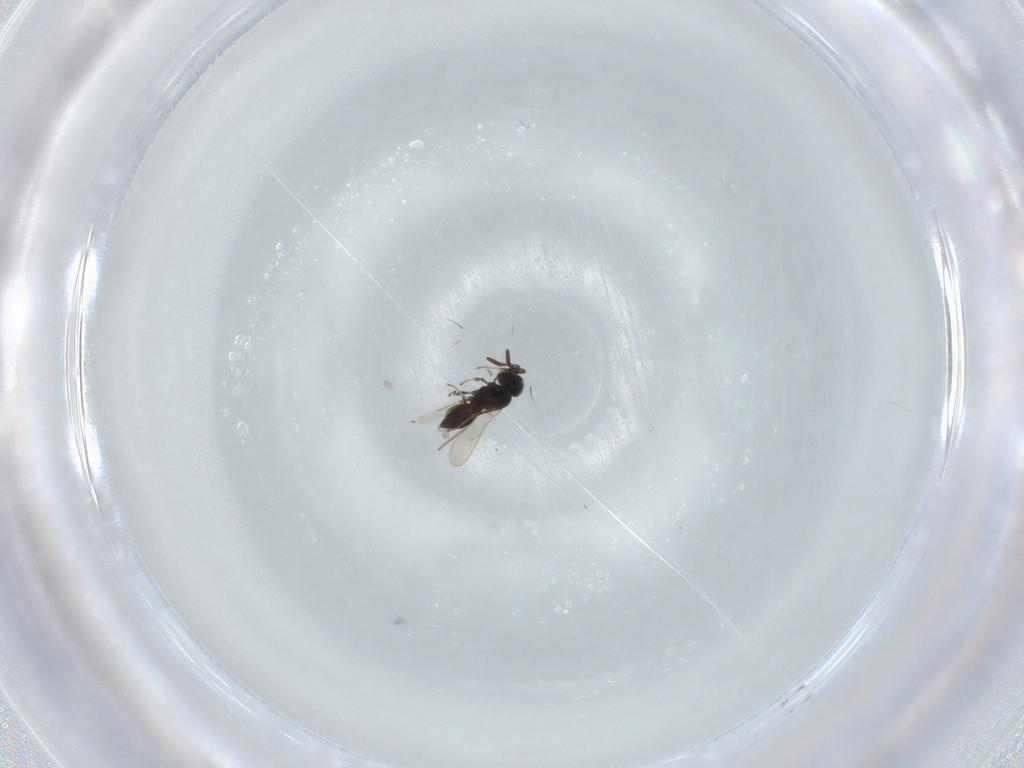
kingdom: Animalia
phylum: Arthropoda
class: Insecta
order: Hymenoptera
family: Scelionidae
